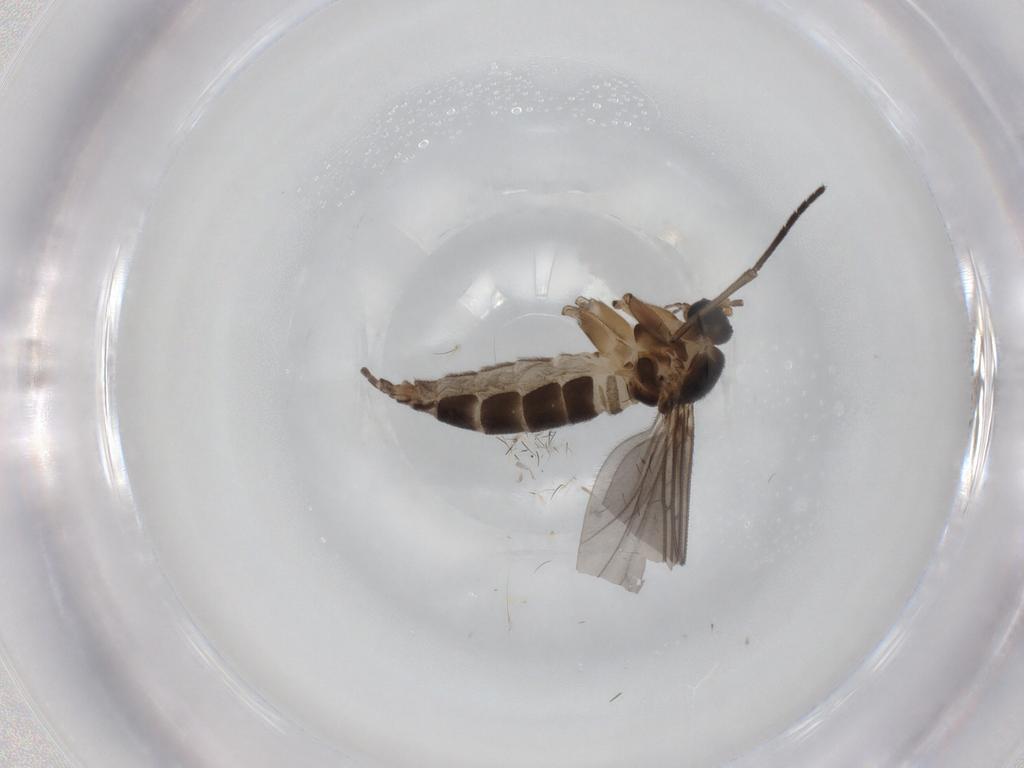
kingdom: Animalia
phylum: Arthropoda
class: Insecta
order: Diptera
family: Sciaridae
